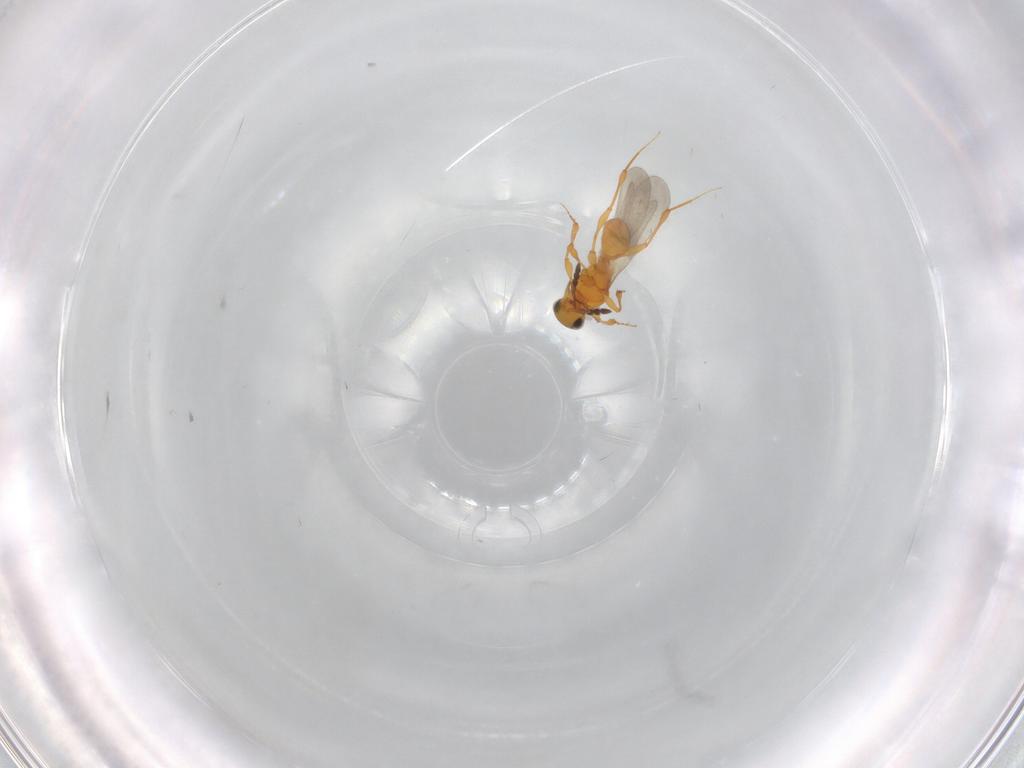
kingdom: Animalia
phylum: Arthropoda
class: Insecta
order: Hymenoptera
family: Platygastridae
